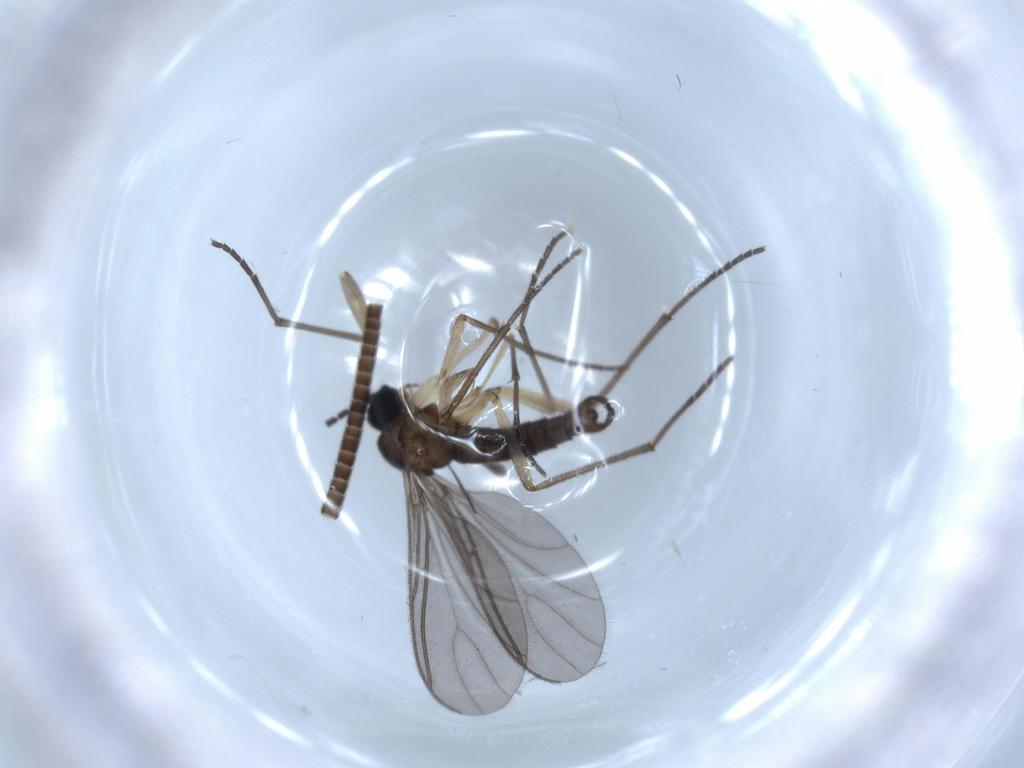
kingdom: Animalia
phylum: Arthropoda
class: Insecta
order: Diptera
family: Sciaridae
